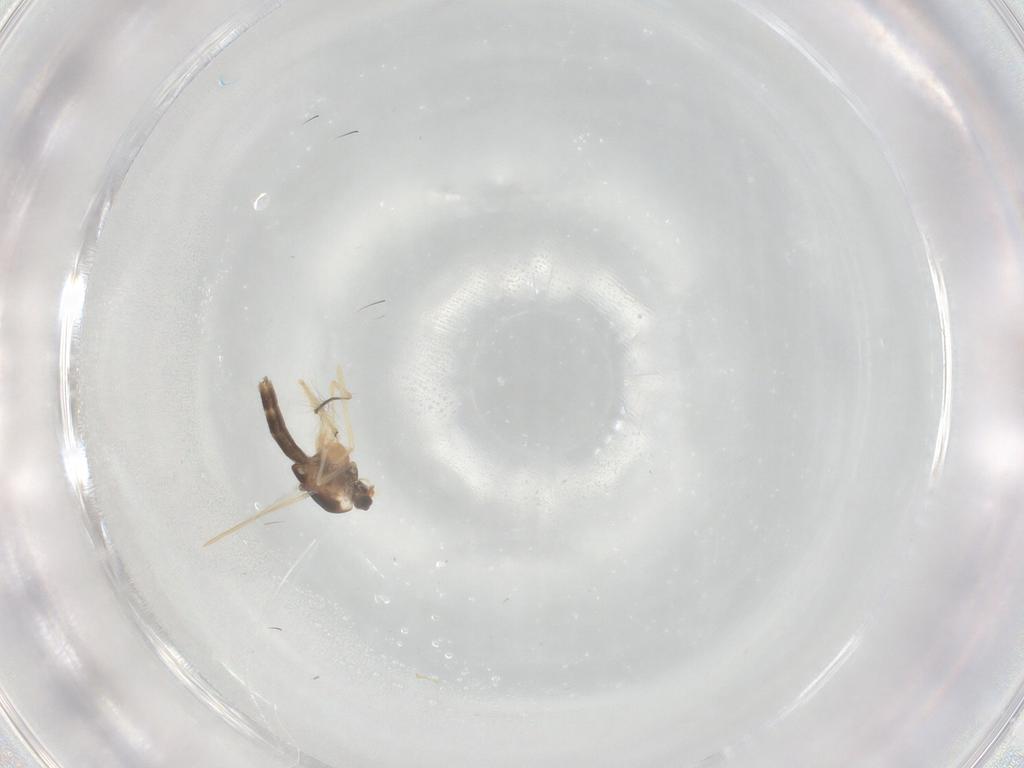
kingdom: Animalia
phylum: Arthropoda
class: Insecta
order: Diptera
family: Chironomidae
